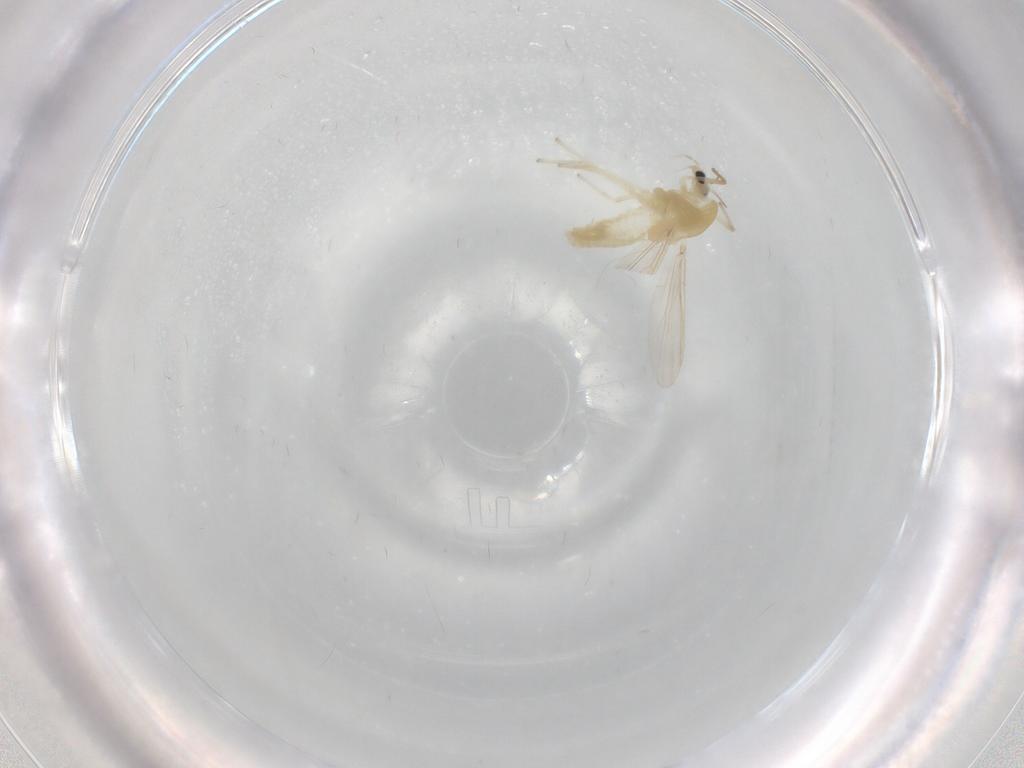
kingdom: Animalia
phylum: Arthropoda
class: Insecta
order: Diptera
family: Chironomidae
